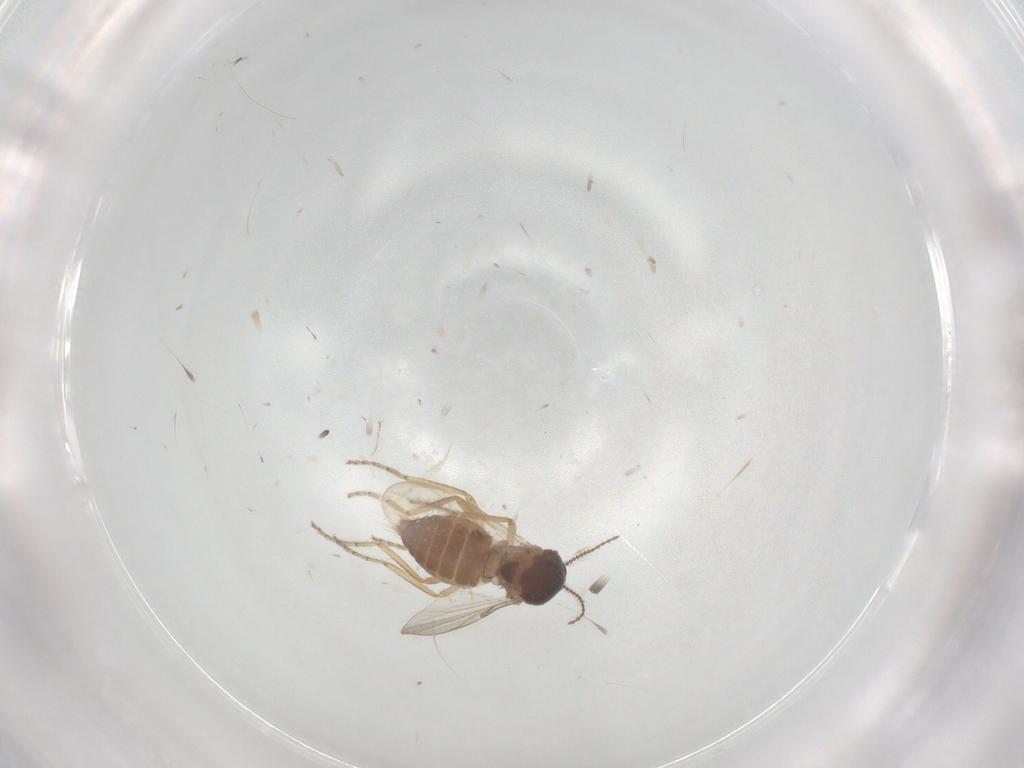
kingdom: Animalia
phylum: Arthropoda
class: Insecta
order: Diptera
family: Ceratopogonidae
